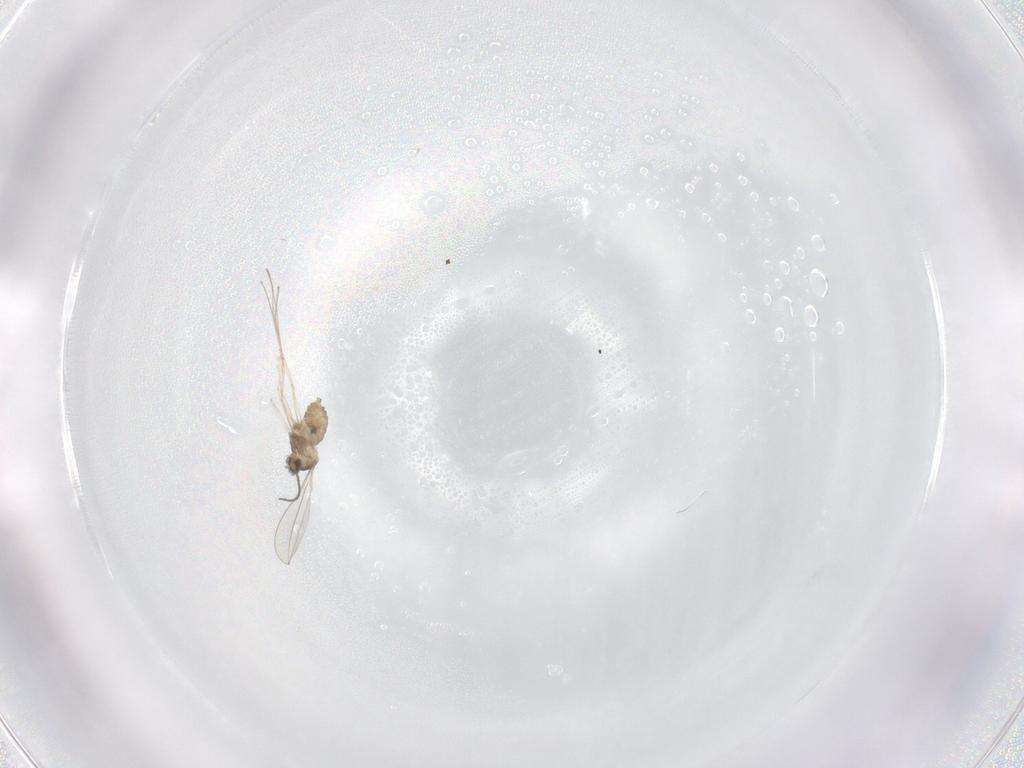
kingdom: Animalia
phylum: Arthropoda
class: Insecta
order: Diptera
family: Cecidomyiidae
